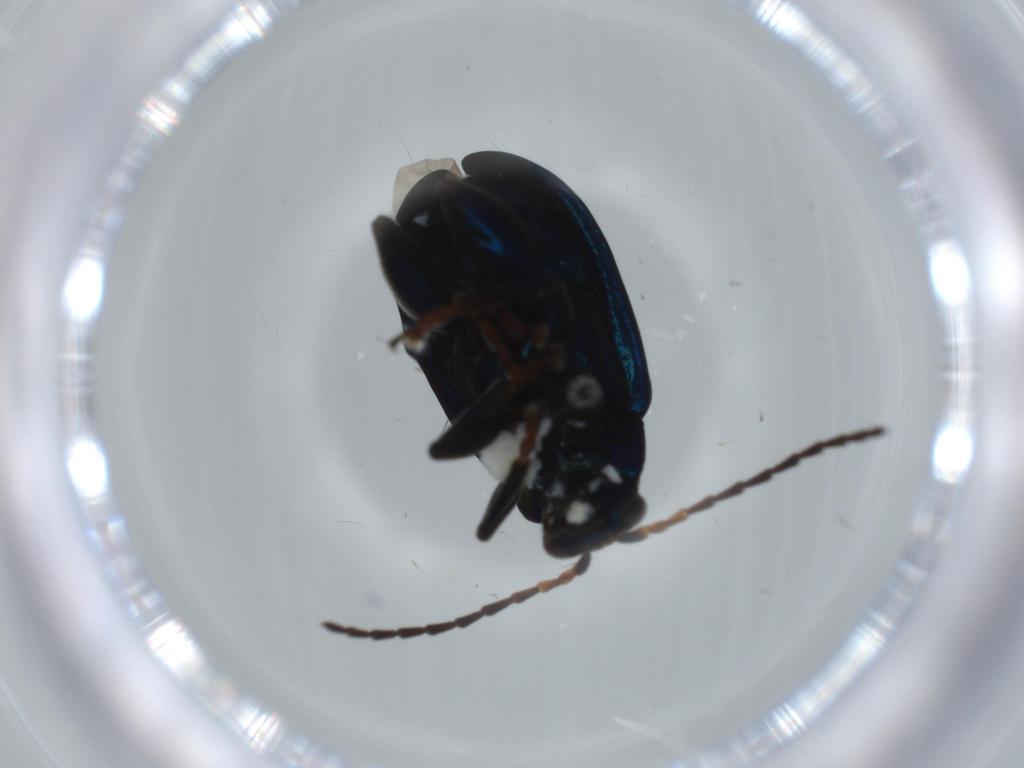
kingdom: Animalia
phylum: Arthropoda
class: Insecta
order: Coleoptera
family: Chrysomelidae
